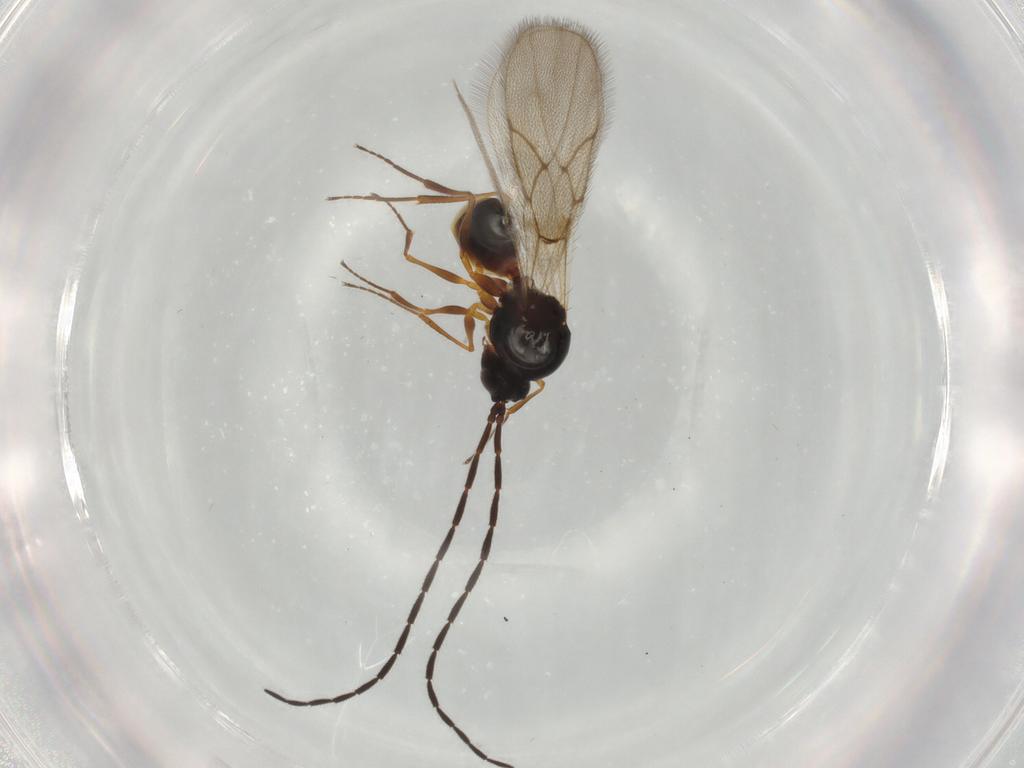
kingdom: Animalia
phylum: Arthropoda
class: Insecta
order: Hymenoptera
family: Figitidae
